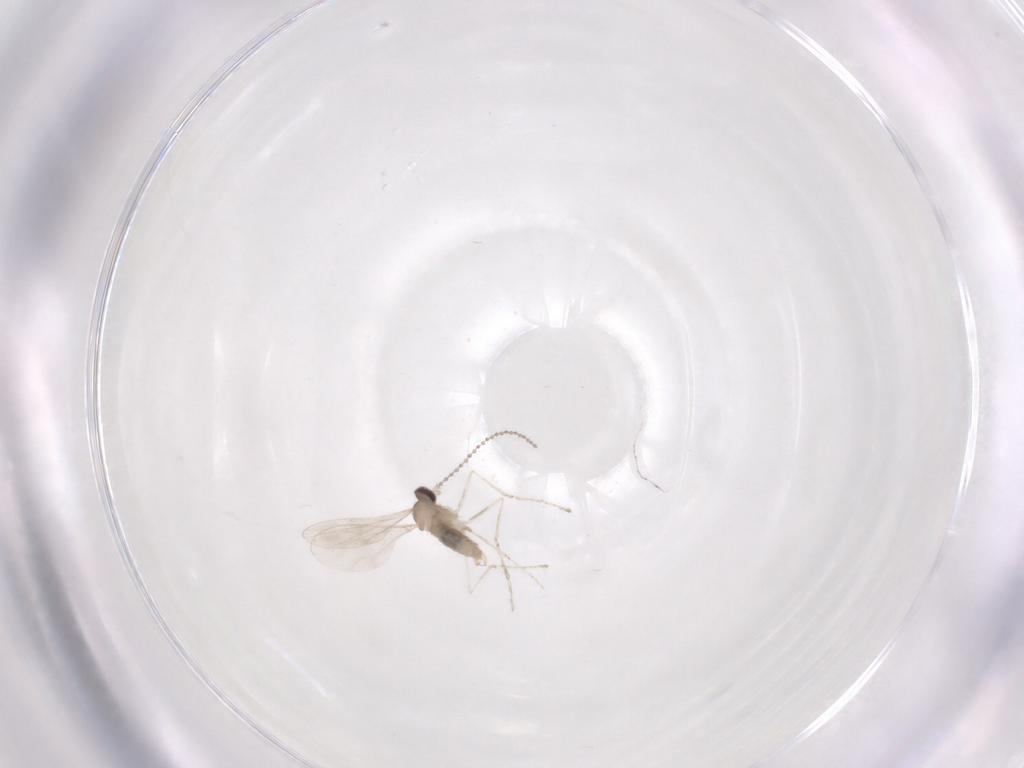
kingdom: Animalia
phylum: Arthropoda
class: Insecta
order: Diptera
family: Cecidomyiidae
